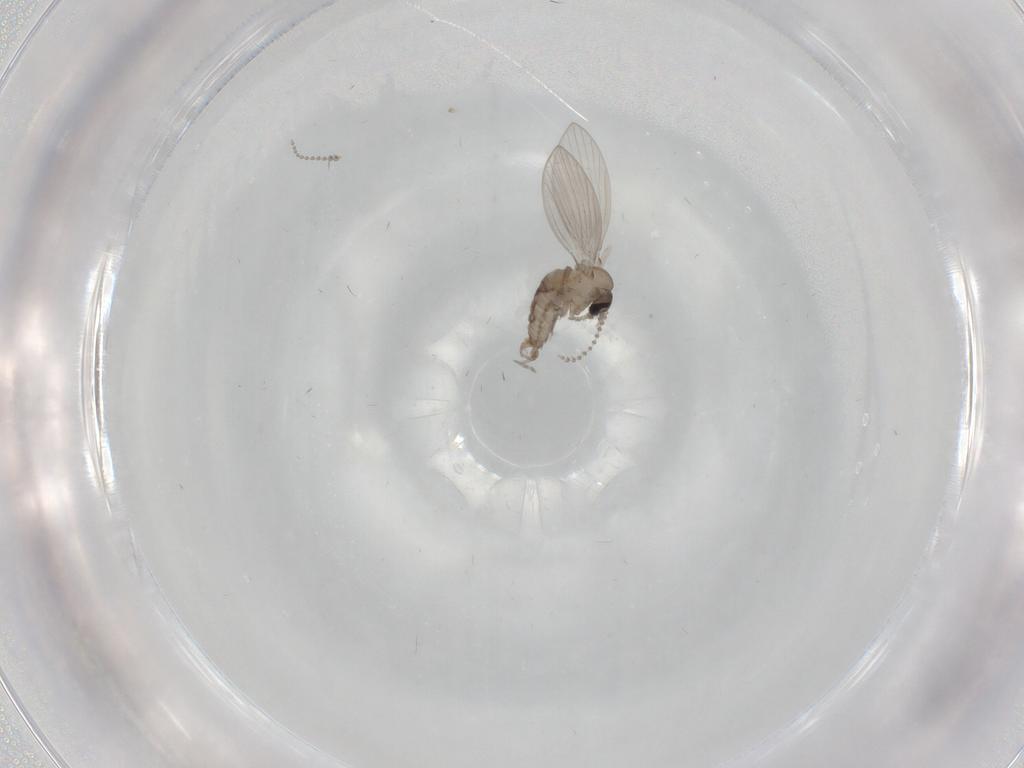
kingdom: Animalia
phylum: Arthropoda
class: Insecta
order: Diptera
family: Psychodidae
